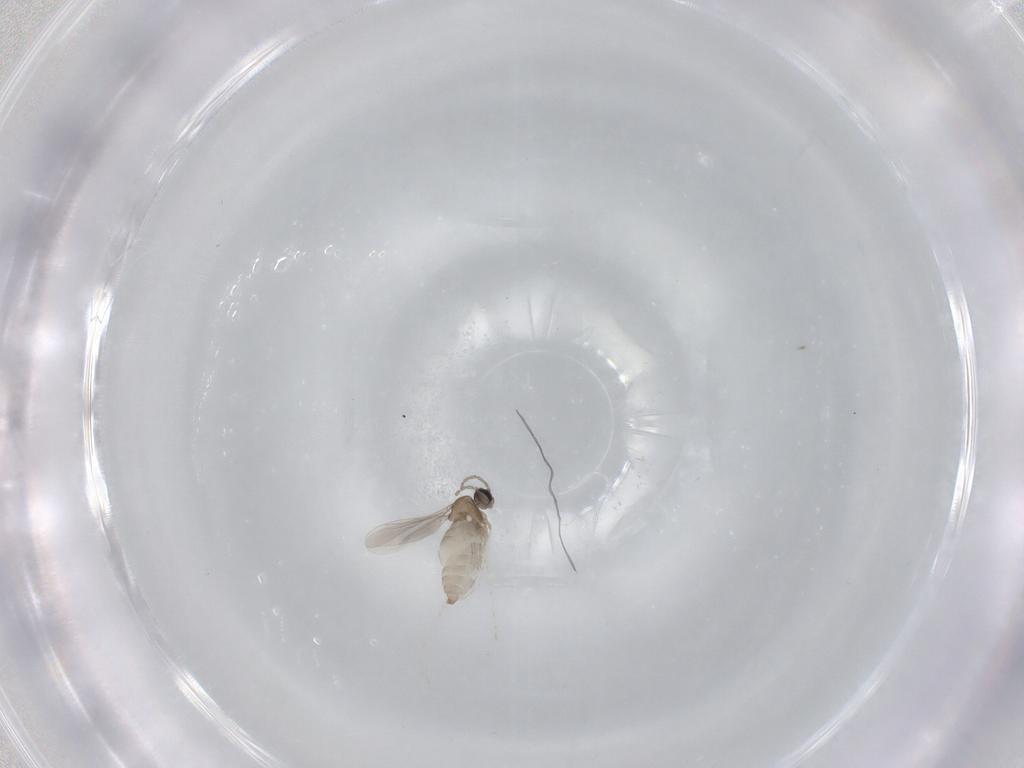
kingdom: Animalia
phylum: Arthropoda
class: Insecta
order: Diptera
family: Cecidomyiidae
